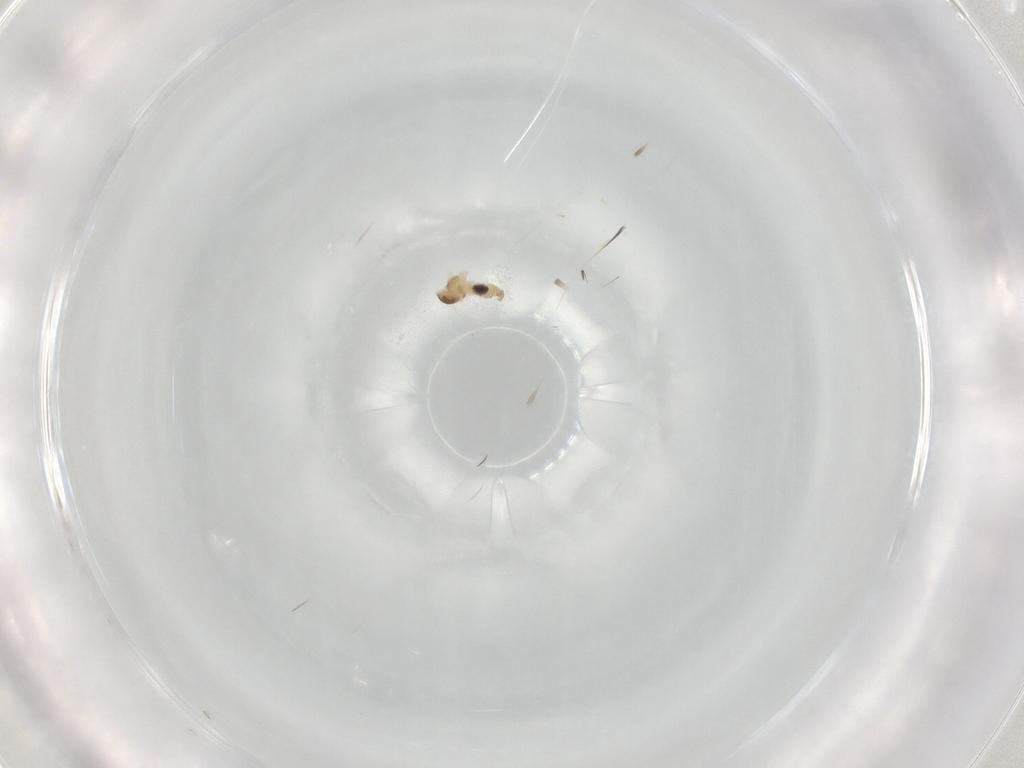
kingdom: Animalia
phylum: Arthropoda
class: Insecta
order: Diptera
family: Cecidomyiidae
